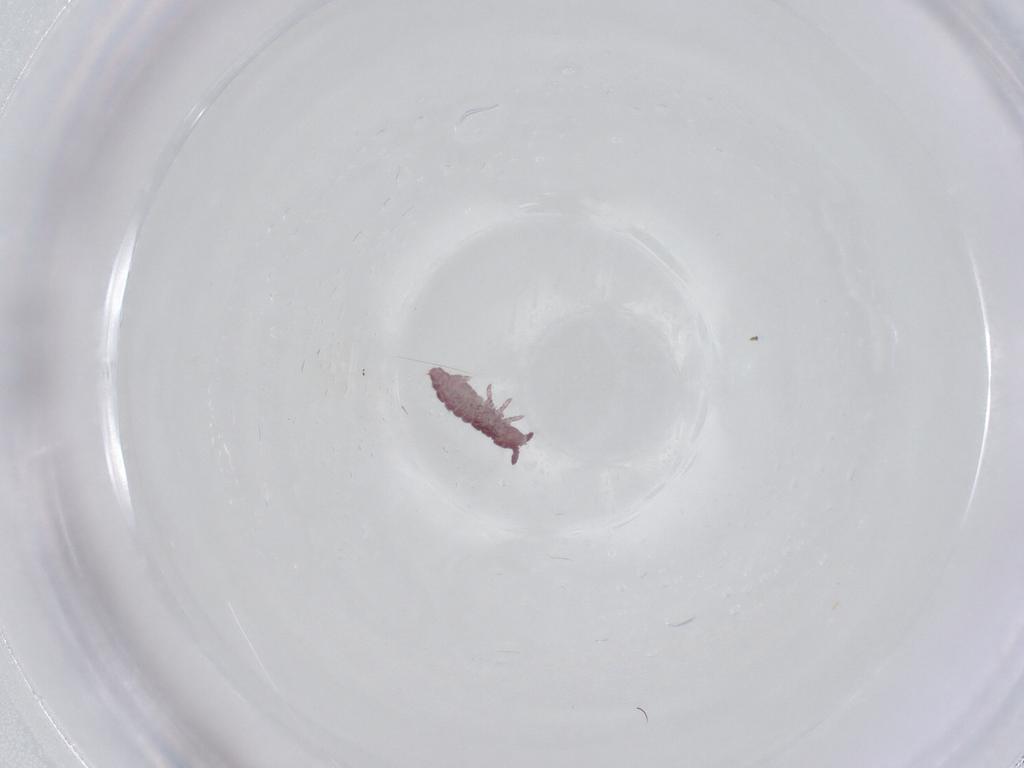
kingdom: Animalia
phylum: Arthropoda
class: Collembola
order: Poduromorpha
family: Hypogastruridae
